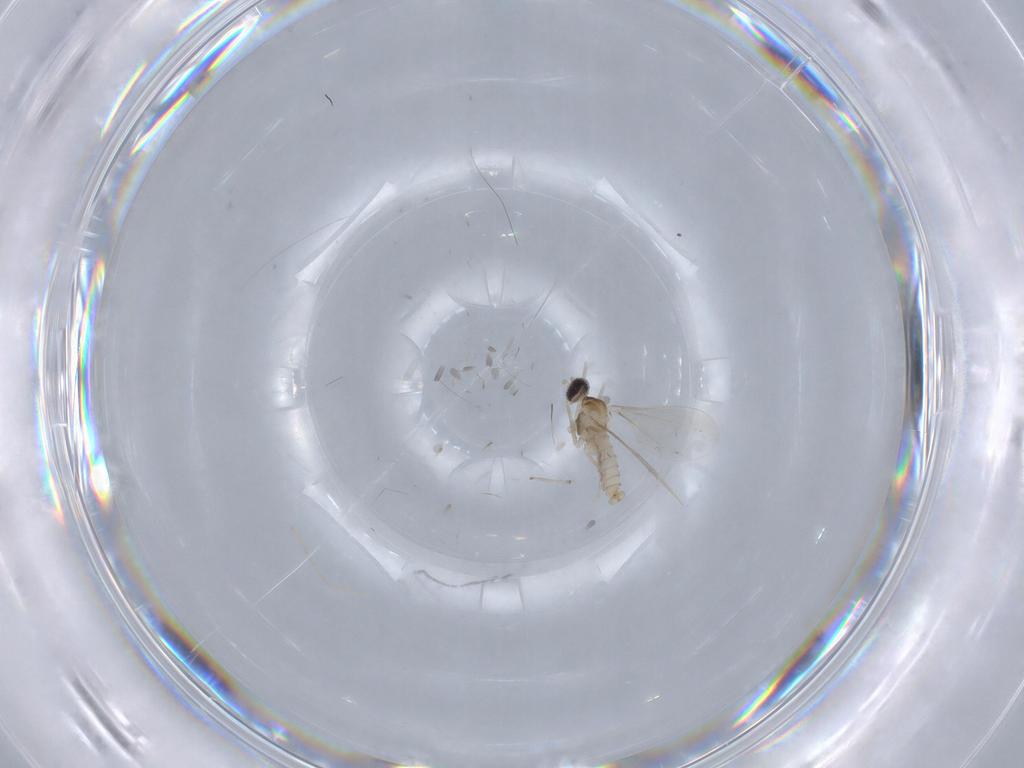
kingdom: Animalia
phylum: Arthropoda
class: Insecta
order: Diptera
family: Cecidomyiidae
